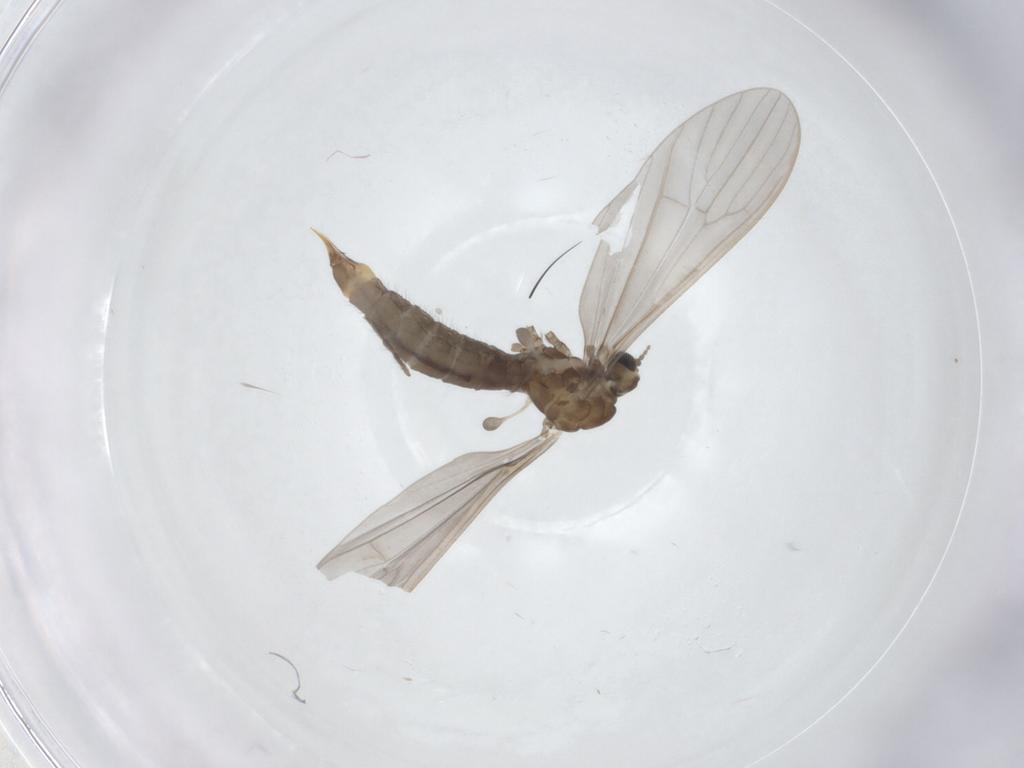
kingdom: Animalia
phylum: Arthropoda
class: Insecta
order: Diptera
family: Limoniidae
